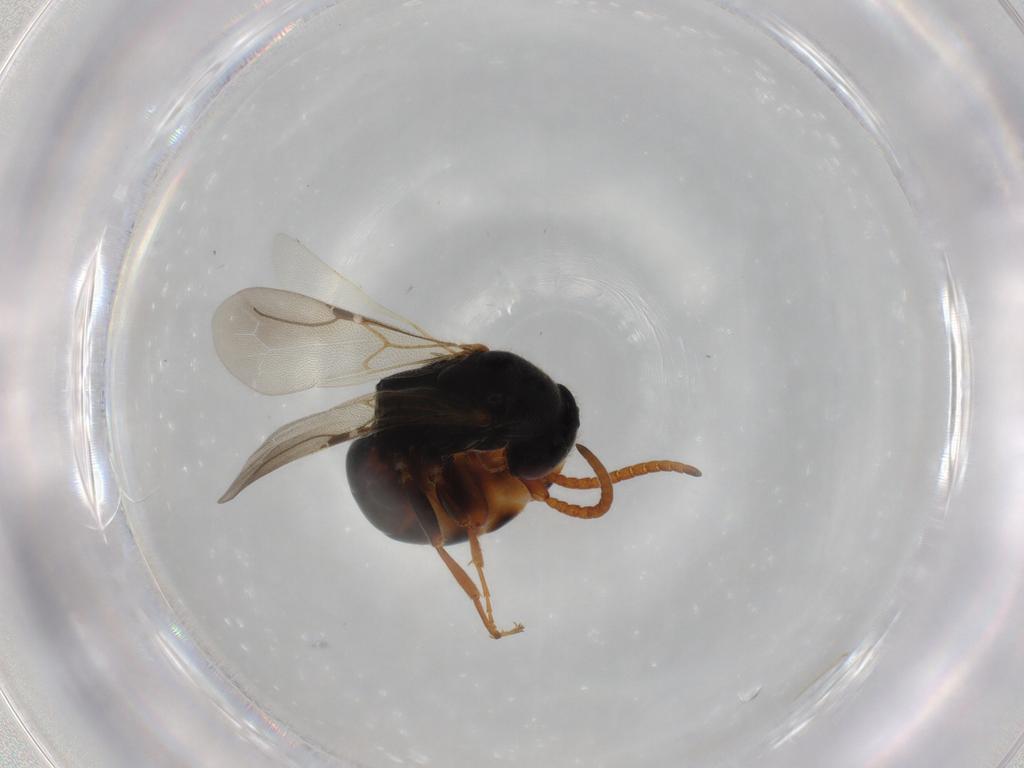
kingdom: Animalia
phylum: Arthropoda
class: Insecta
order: Hymenoptera
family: Bethylidae
